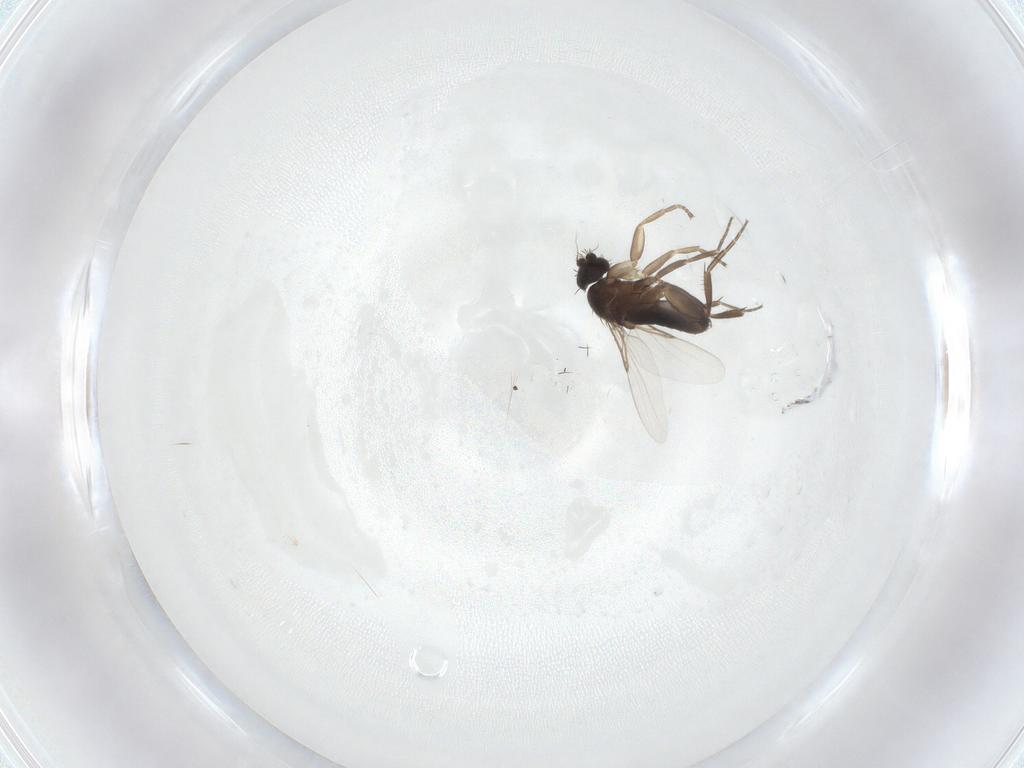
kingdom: Animalia
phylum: Arthropoda
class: Insecta
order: Diptera
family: Phoridae
